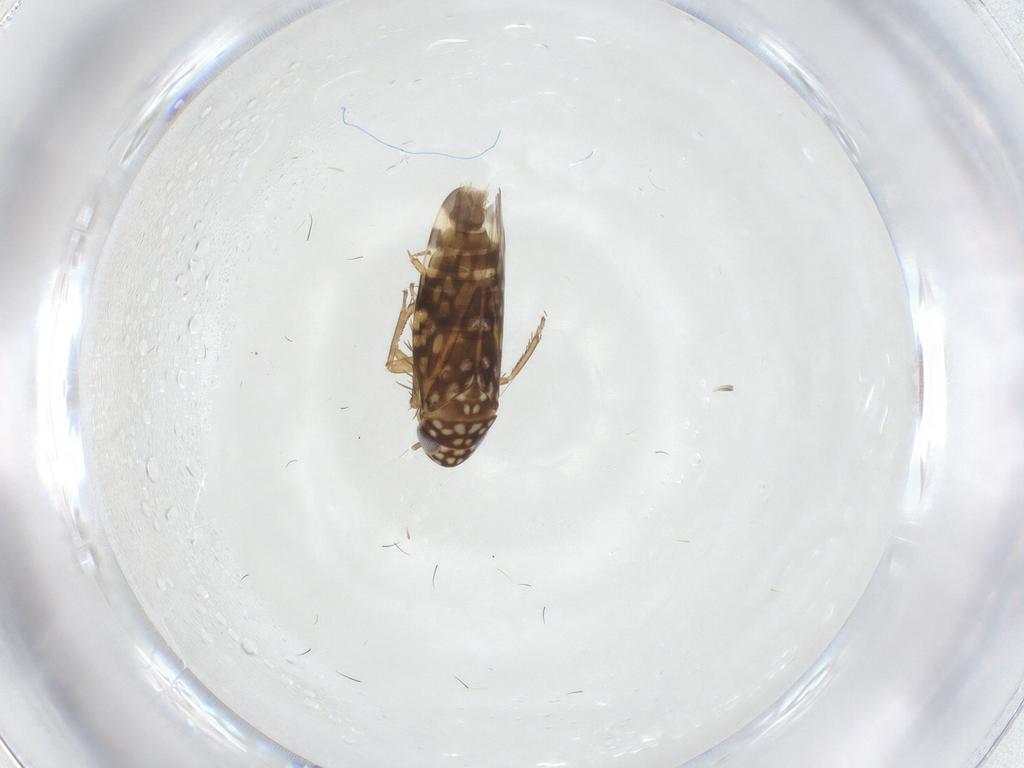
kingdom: Animalia
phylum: Arthropoda
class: Insecta
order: Hemiptera
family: Cicadellidae
